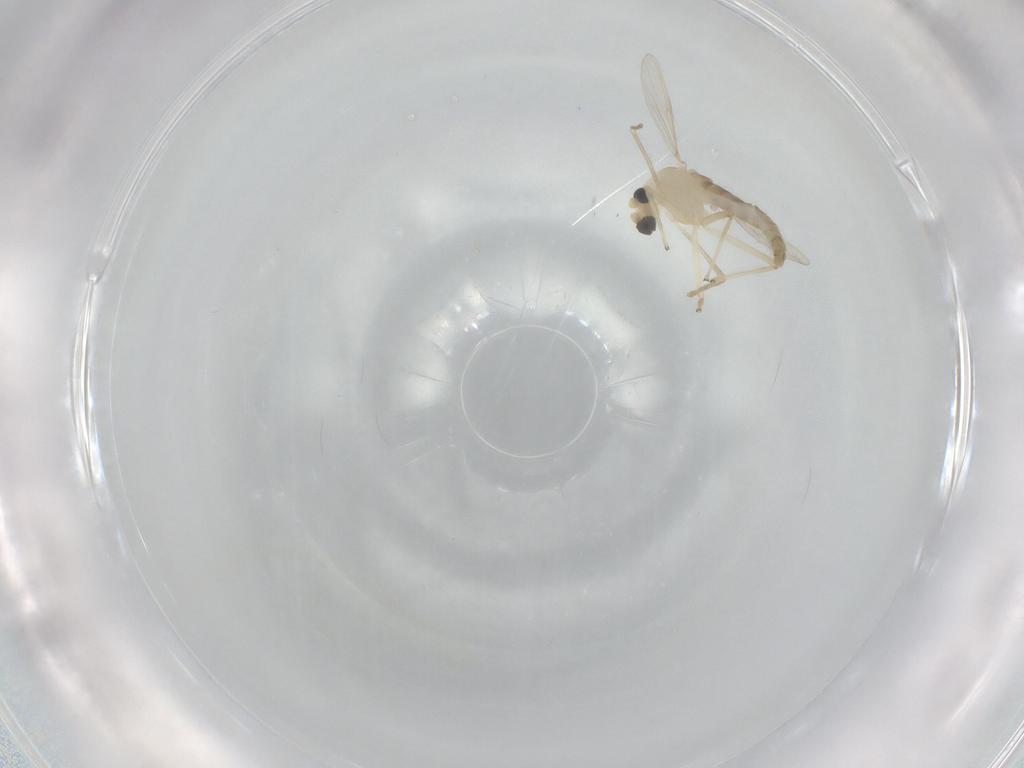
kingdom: Animalia
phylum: Arthropoda
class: Insecta
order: Diptera
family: Chironomidae
